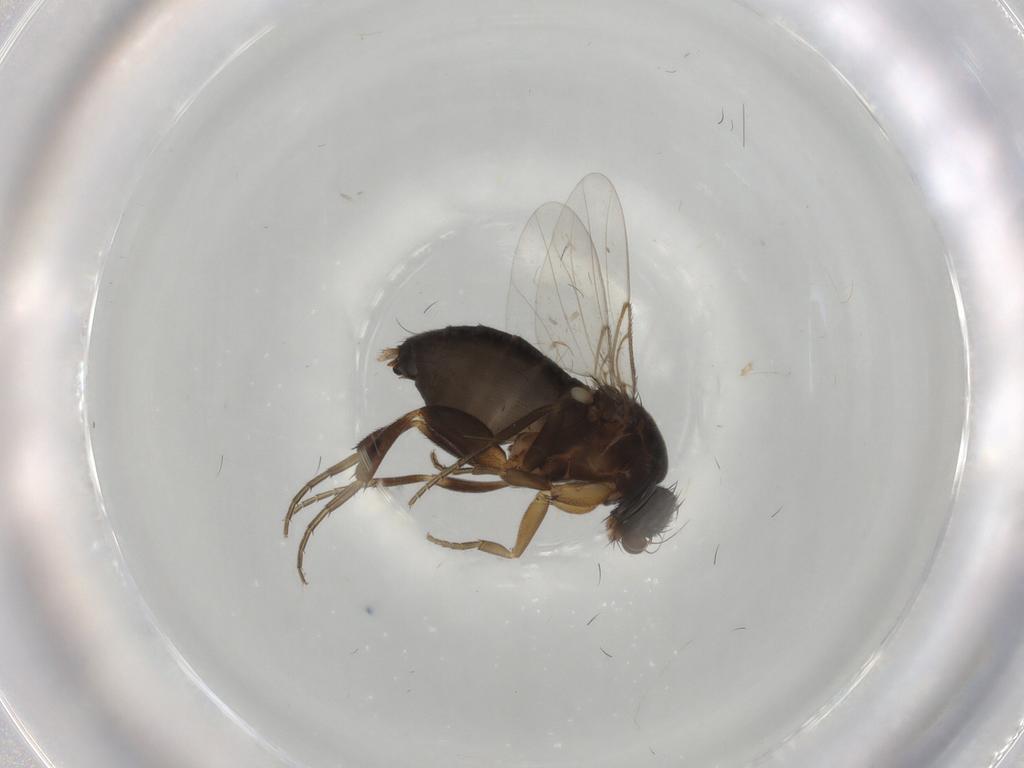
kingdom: Animalia
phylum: Arthropoda
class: Insecta
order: Diptera
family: Phoridae
